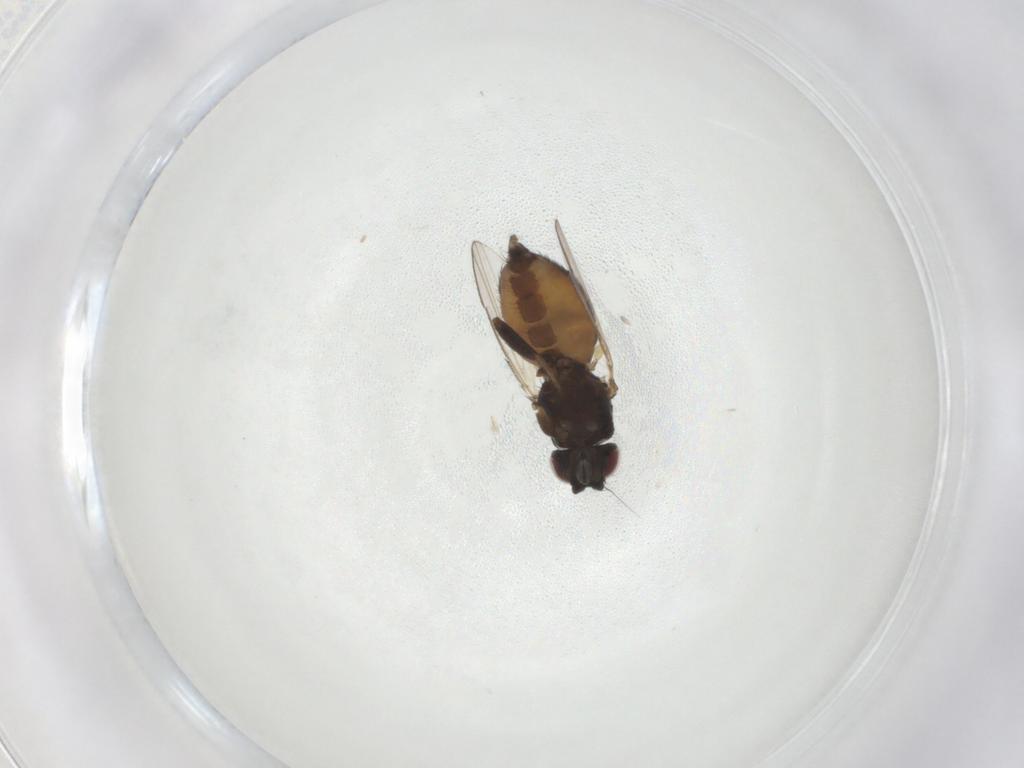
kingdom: Animalia
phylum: Arthropoda
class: Insecta
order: Diptera
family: Milichiidae
